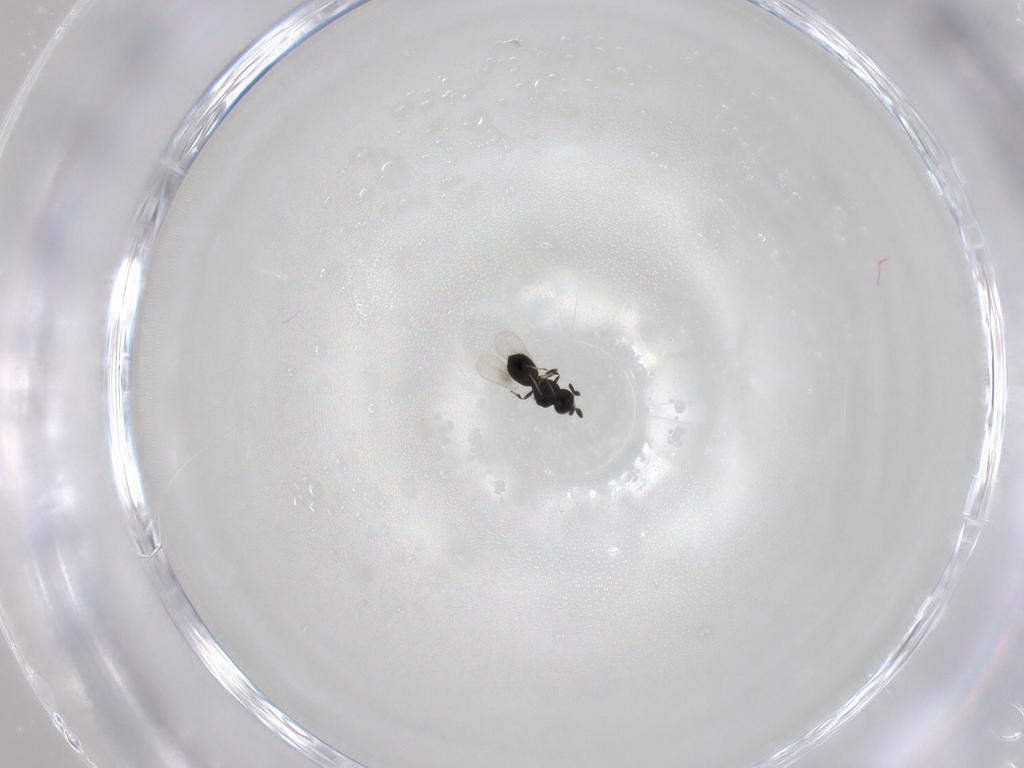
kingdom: Animalia
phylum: Arthropoda
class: Insecta
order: Hymenoptera
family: Platygastridae
